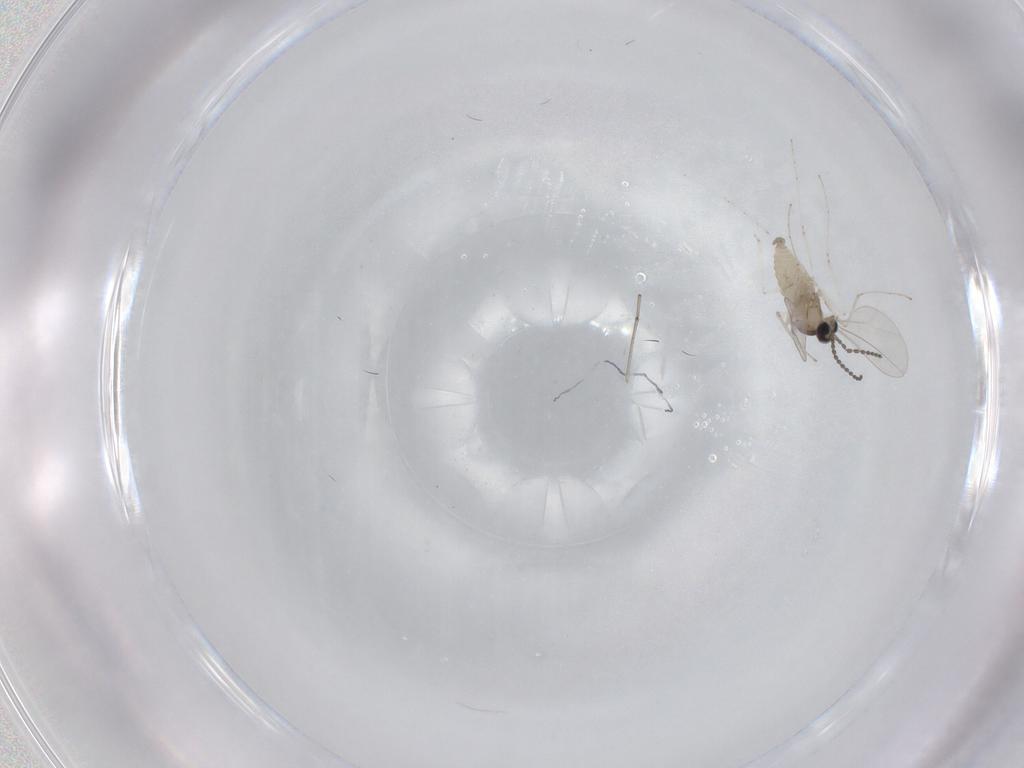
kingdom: Animalia
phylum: Arthropoda
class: Insecta
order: Diptera
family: Cecidomyiidae
